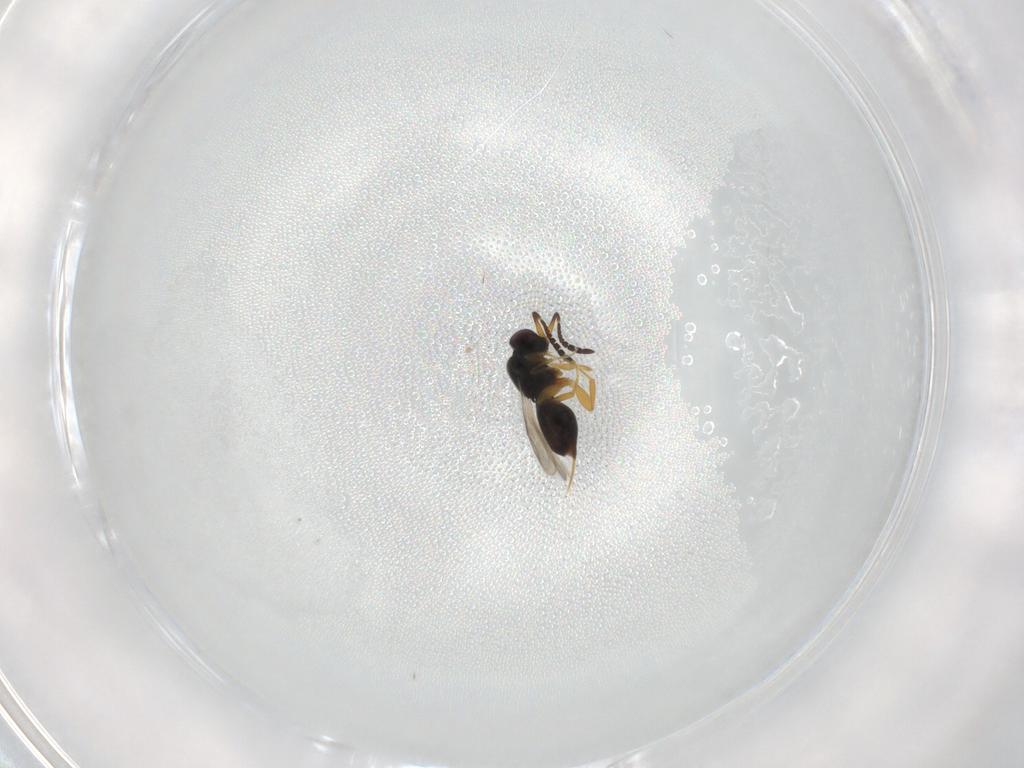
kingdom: Animalia
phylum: Arthropoda
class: Insecta
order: Hymenoptera
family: Ceraphronidae
